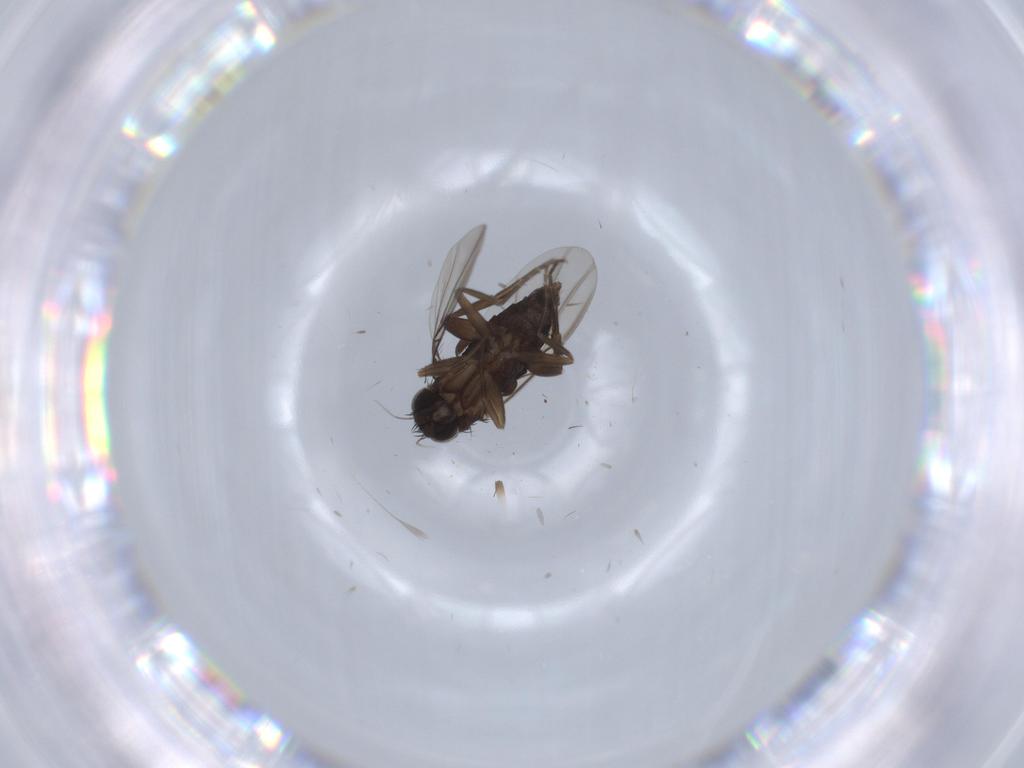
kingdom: Animalia
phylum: Arthropoda
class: Insecta
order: Diptera
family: Phoridae
